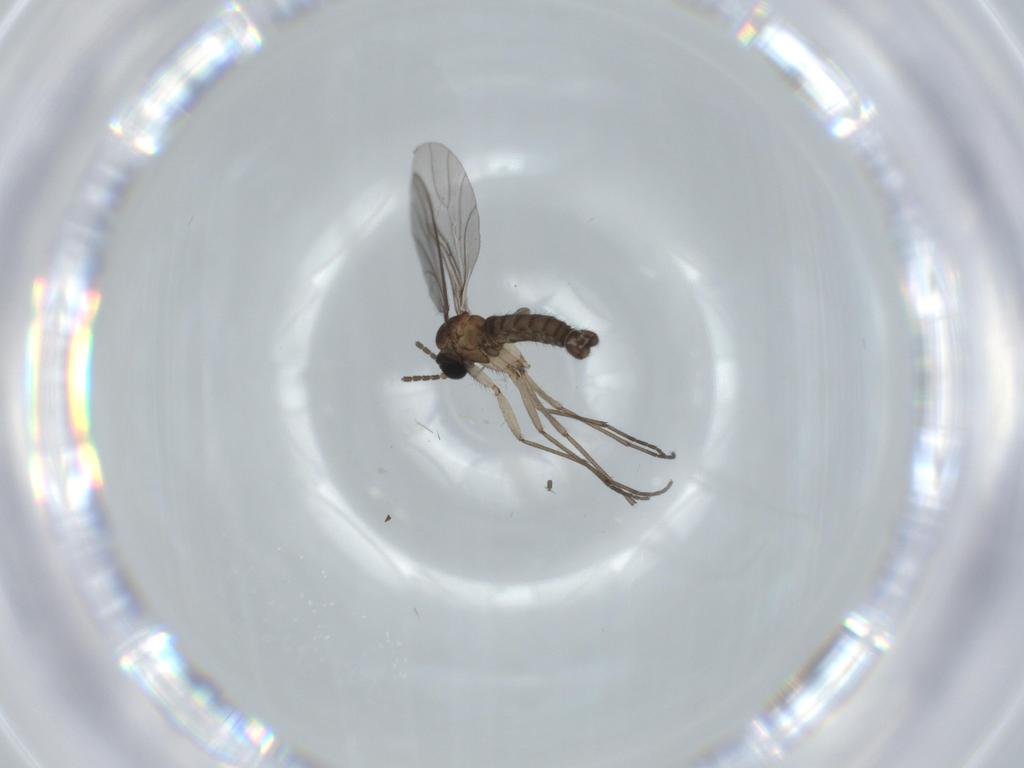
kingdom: Animalia
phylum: Arthropoda
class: Insecta
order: Diptera
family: Sciaridae
